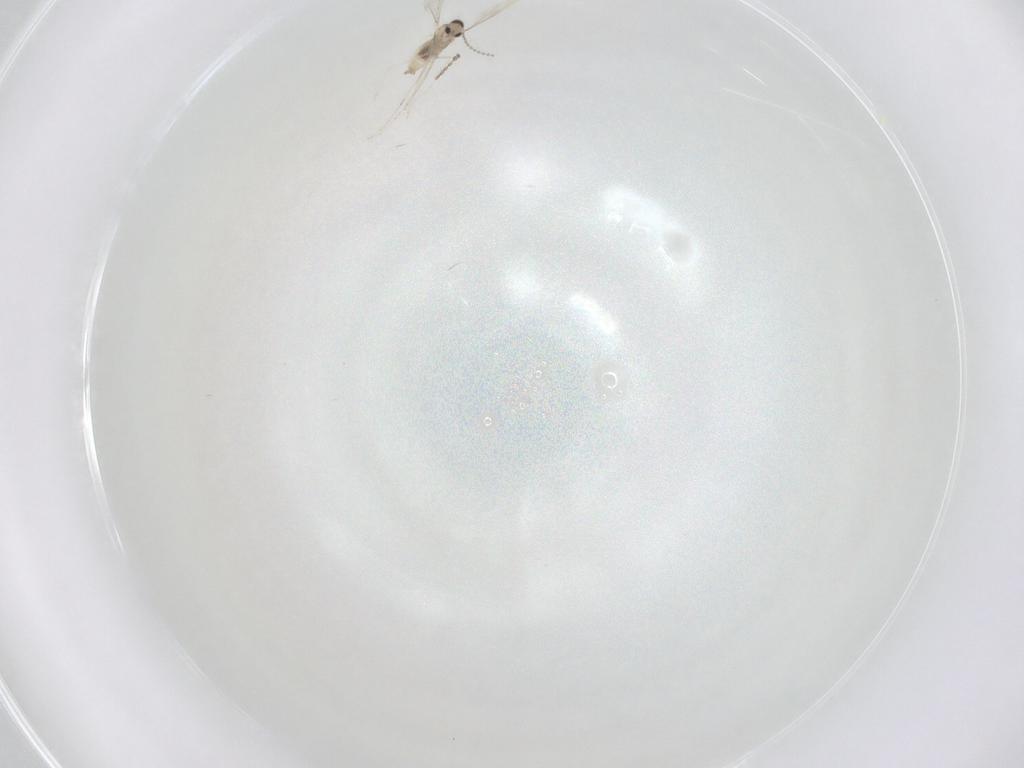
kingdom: Animalia
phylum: Arthropoda
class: Insecta
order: Diptera
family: Cecidomyiidae
